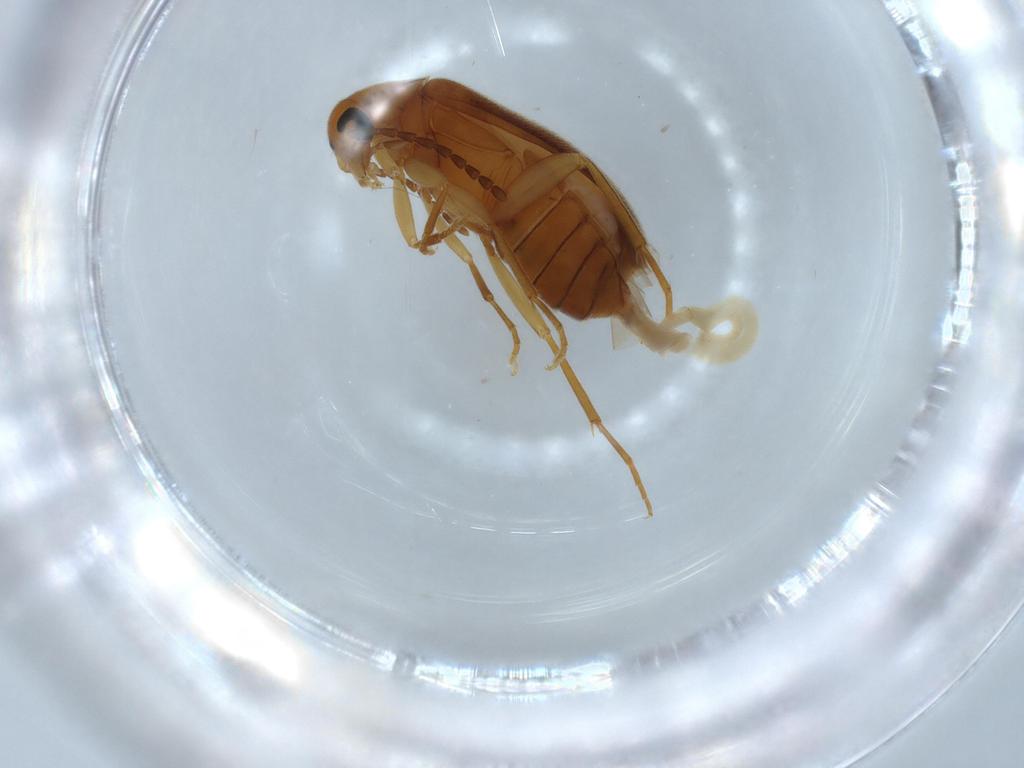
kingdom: Animalia
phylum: Arthropoda
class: Insecta
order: Coleoptera
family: Scraptiidae
